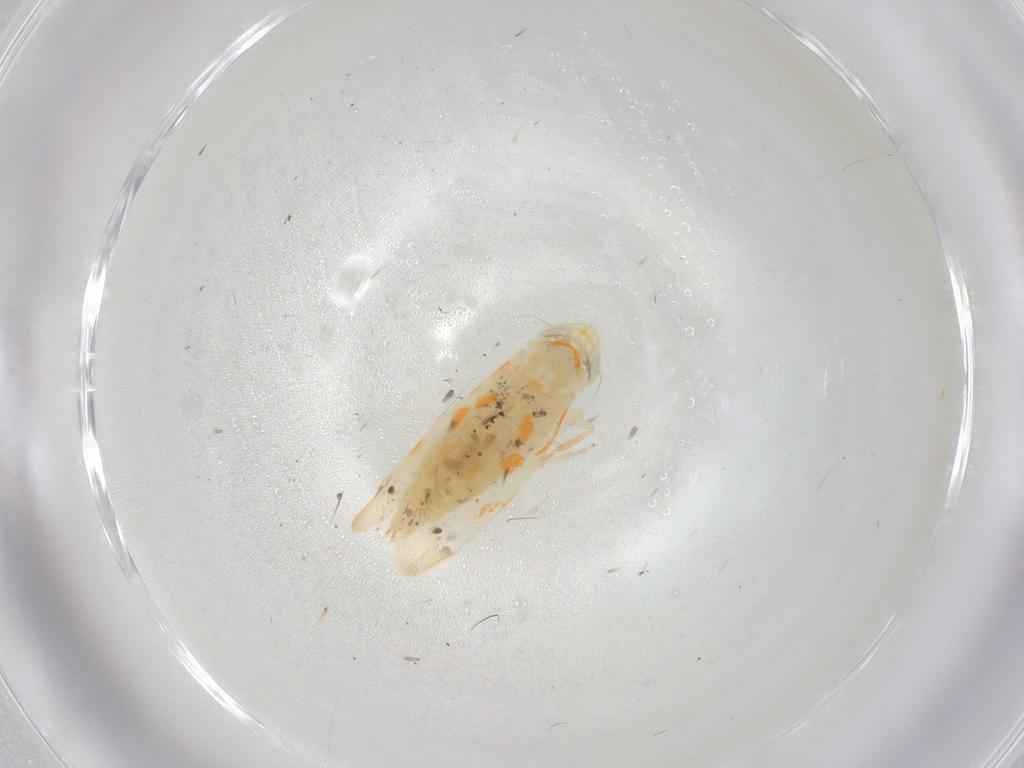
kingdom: Animalia
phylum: Arthropoda
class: Insecta
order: Hemiptera
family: Cicadellidae
